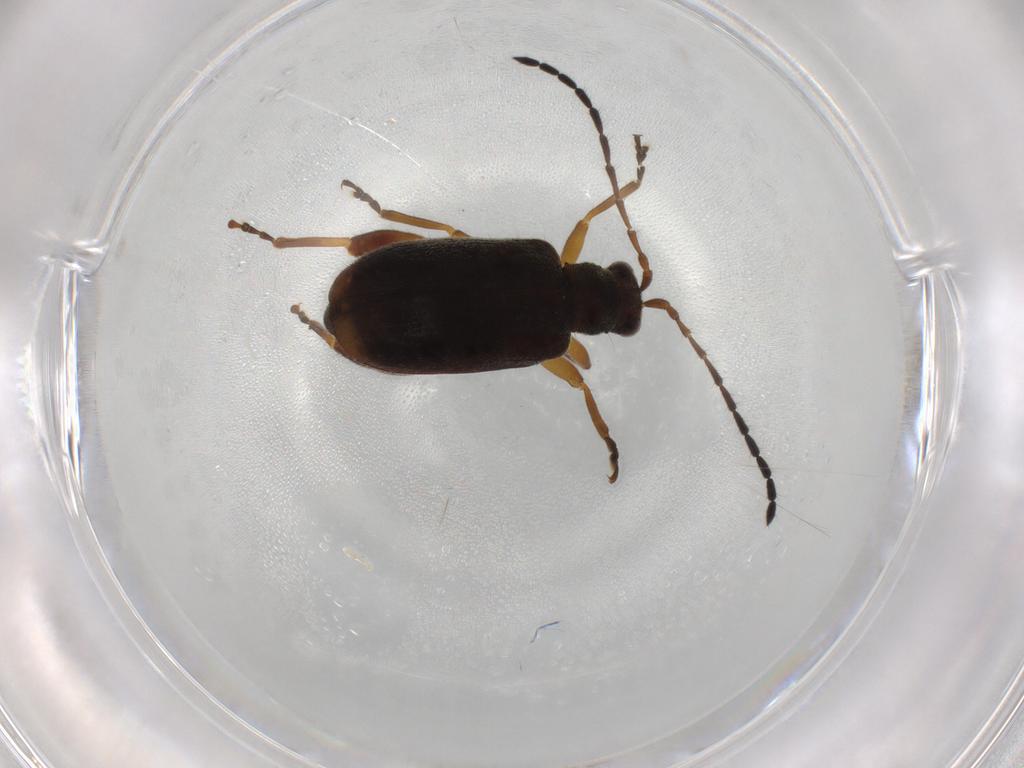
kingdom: Animalia
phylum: Arthropoda
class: Insecta
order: Coleoptera
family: Chrysomelidae
